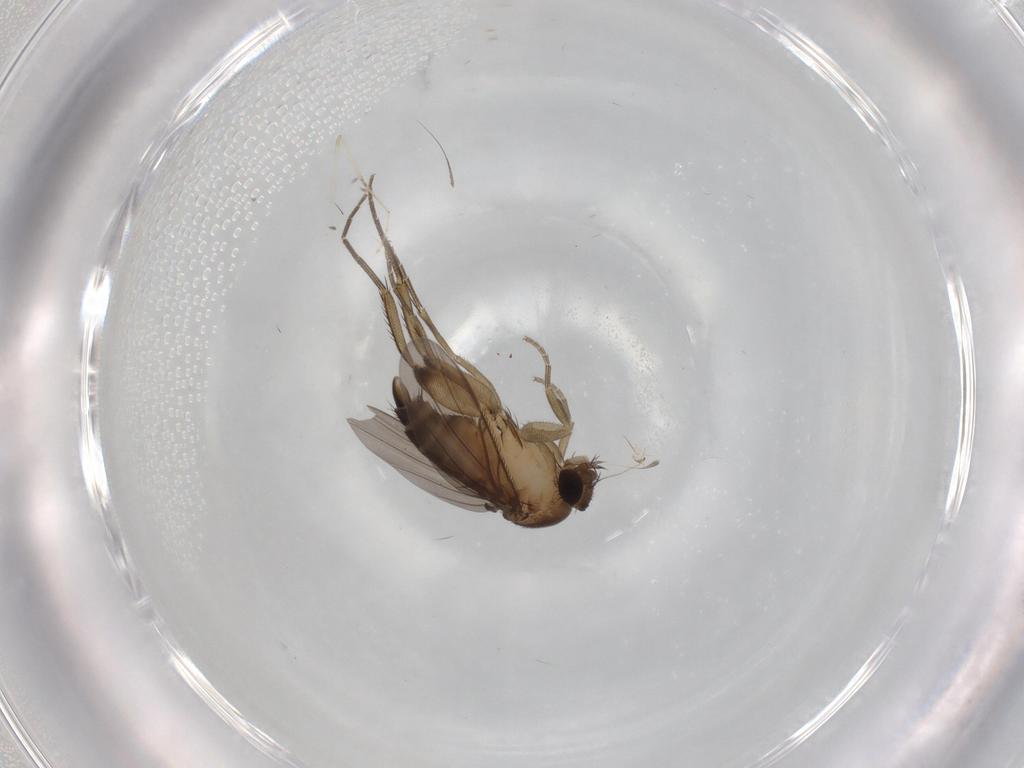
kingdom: Animalia
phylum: Arthropoda
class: Insecta
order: Diptera
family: Phoridae
